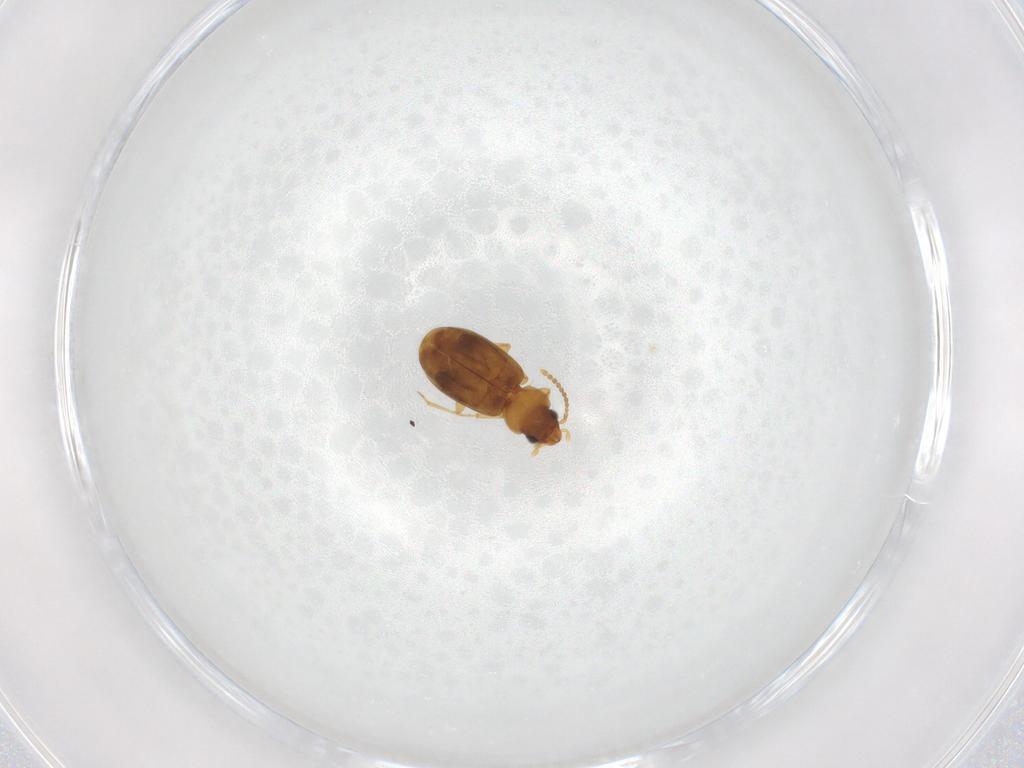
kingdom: Animalia
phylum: Arthropoda
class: Insecta
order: Coleoptera
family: Carabidae
